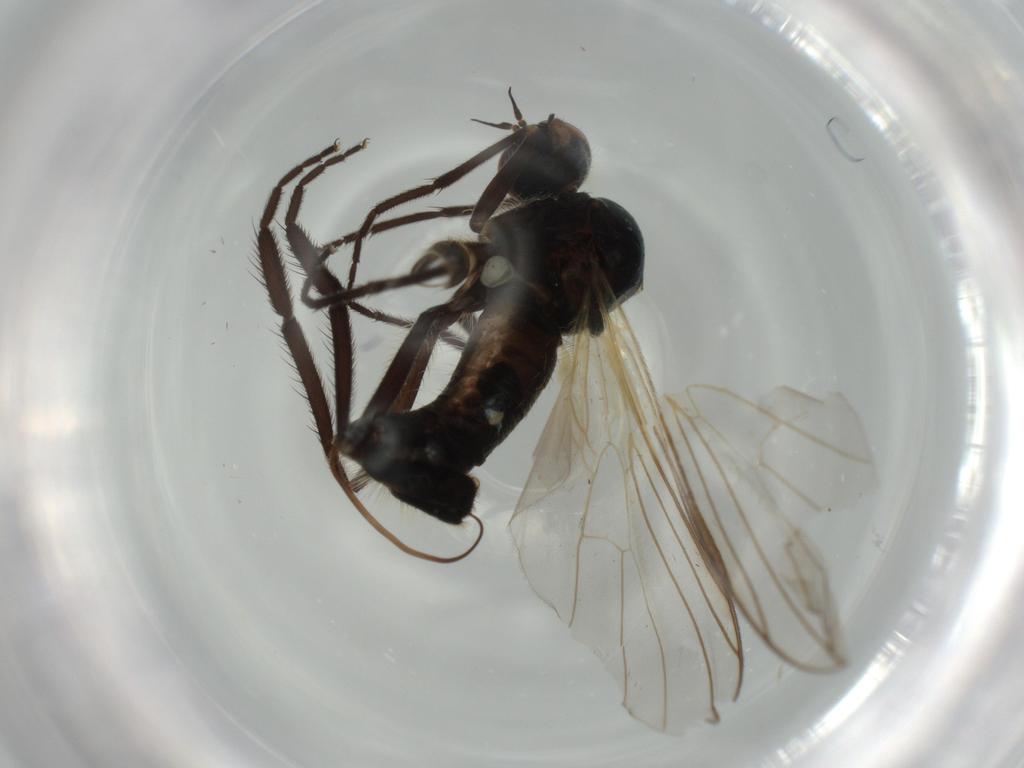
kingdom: Animalia
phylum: Arthropoda
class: Insecta
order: Diptera
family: Empididae
